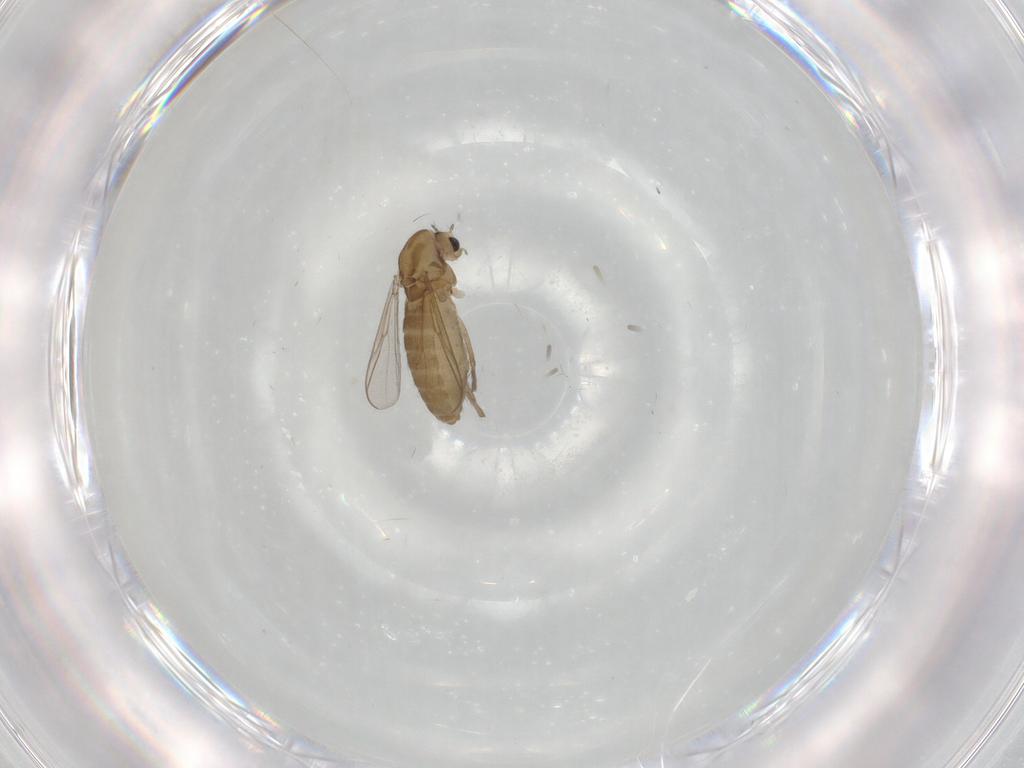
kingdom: Animalia
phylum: Arthropoda
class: Insecta
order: Diptera
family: Chironomidae
